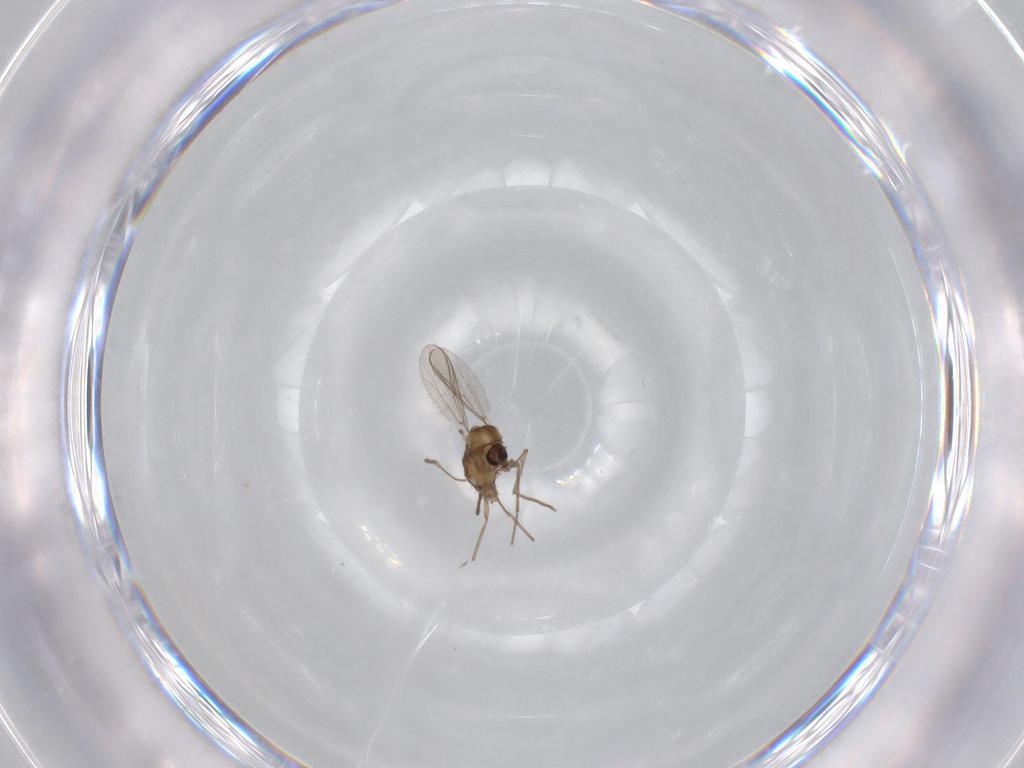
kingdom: Animalia
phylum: Arthropoda
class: Insecta
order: Diptera
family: Chironomidae
